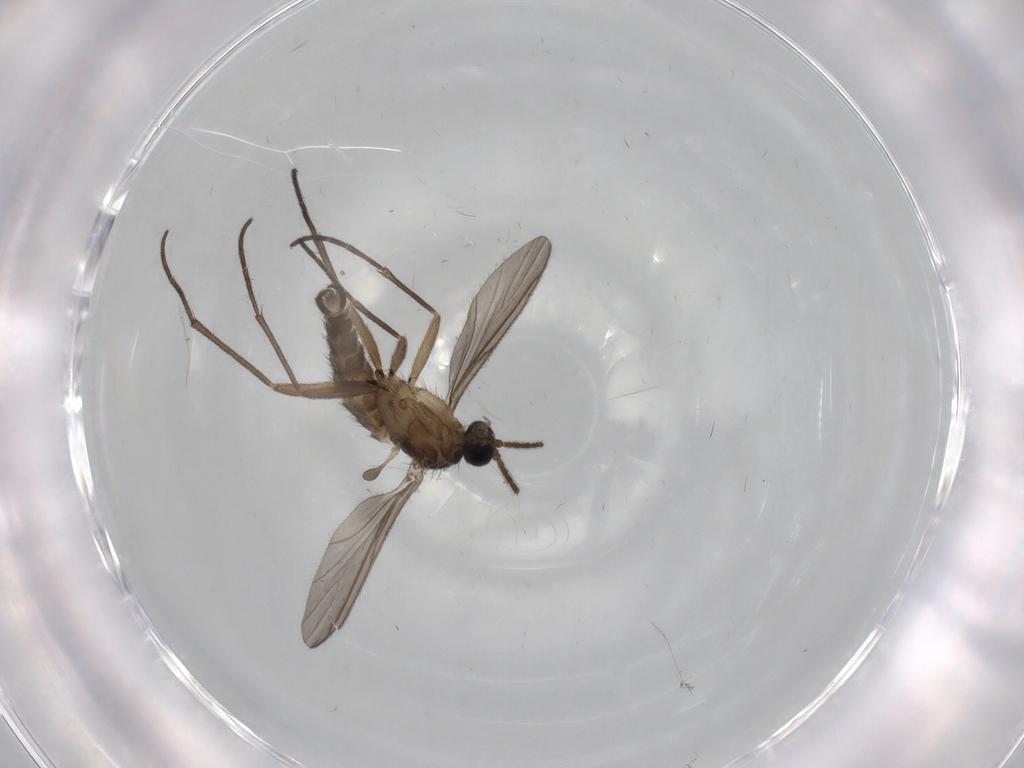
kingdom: Animalia
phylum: Arthropoda
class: Insecta
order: Diptera
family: Sciaridae
